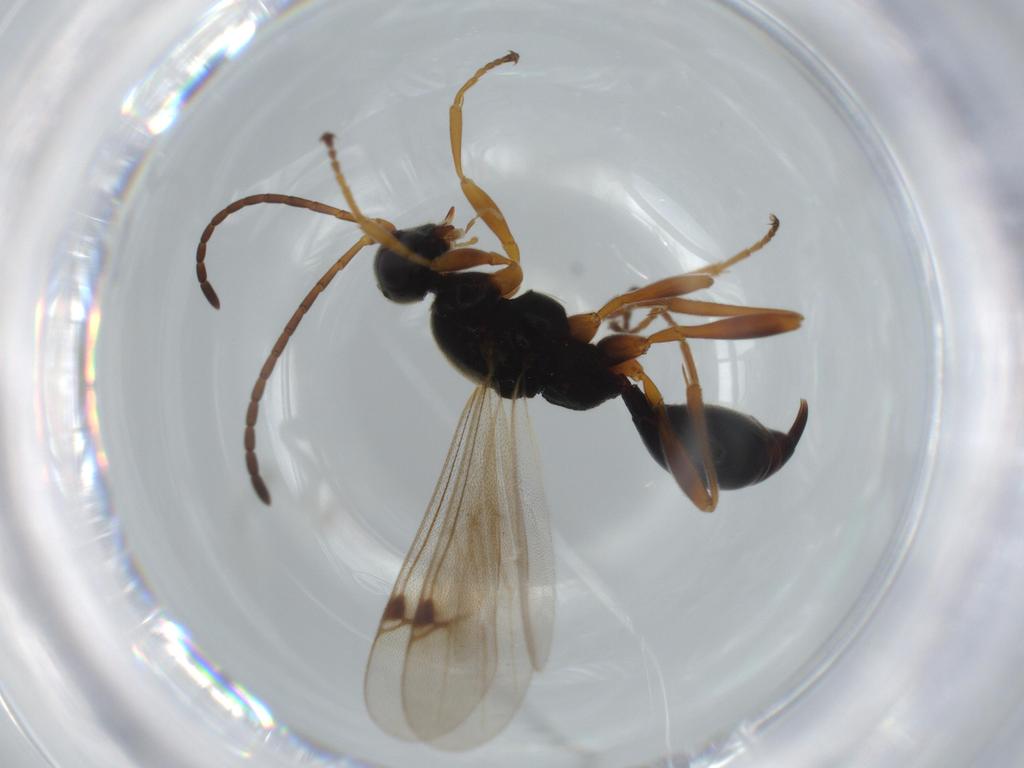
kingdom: Animalia
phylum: Arthropoda
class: Insecta
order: Hymenoptera
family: Proctotrupidae
